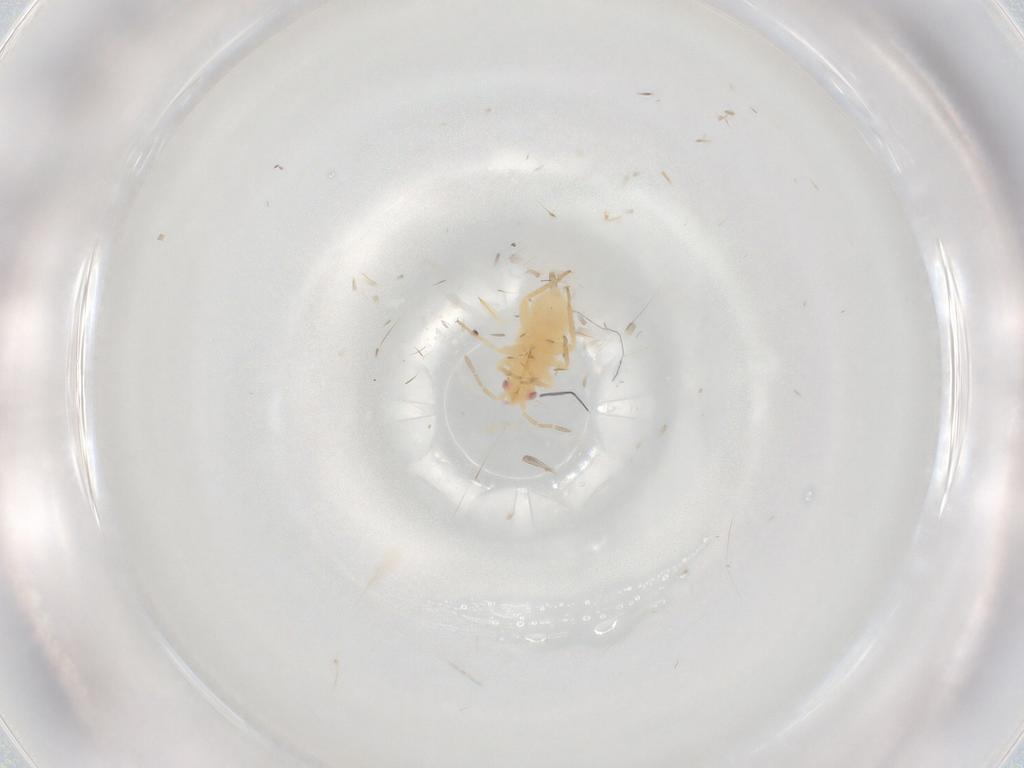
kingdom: Animalia
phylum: Arthropoda
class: Insecta
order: Hemiptera
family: Miridae
